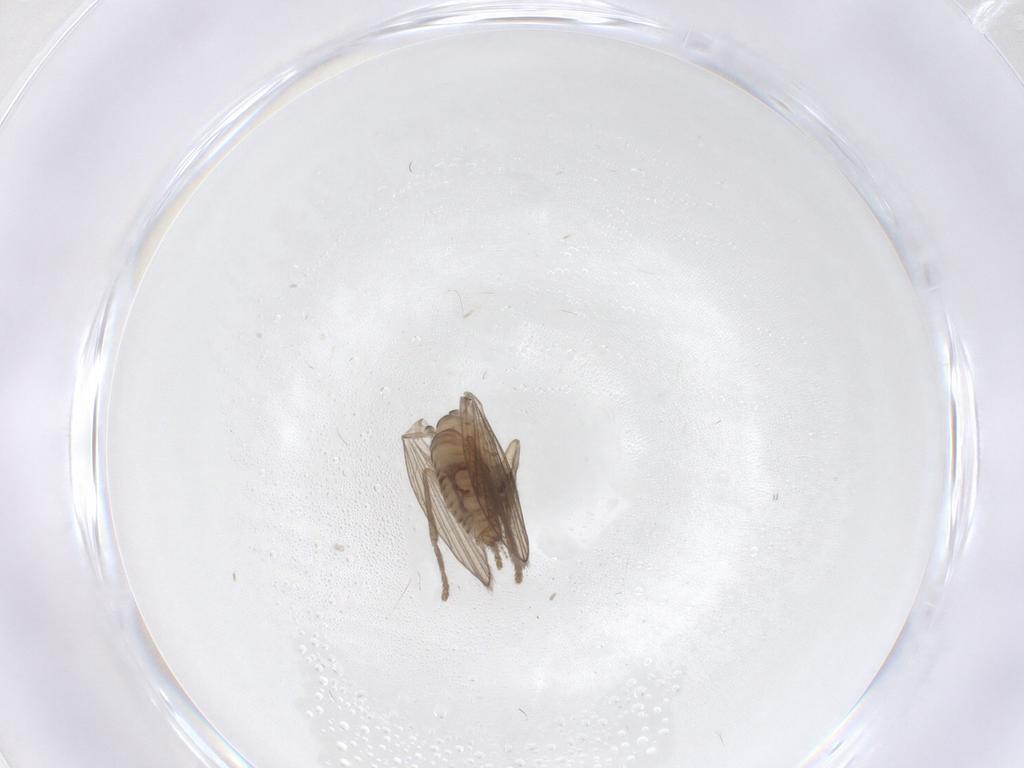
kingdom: Animalia
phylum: Arthropoda
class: Insecta
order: Diptera
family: Psychodidae
